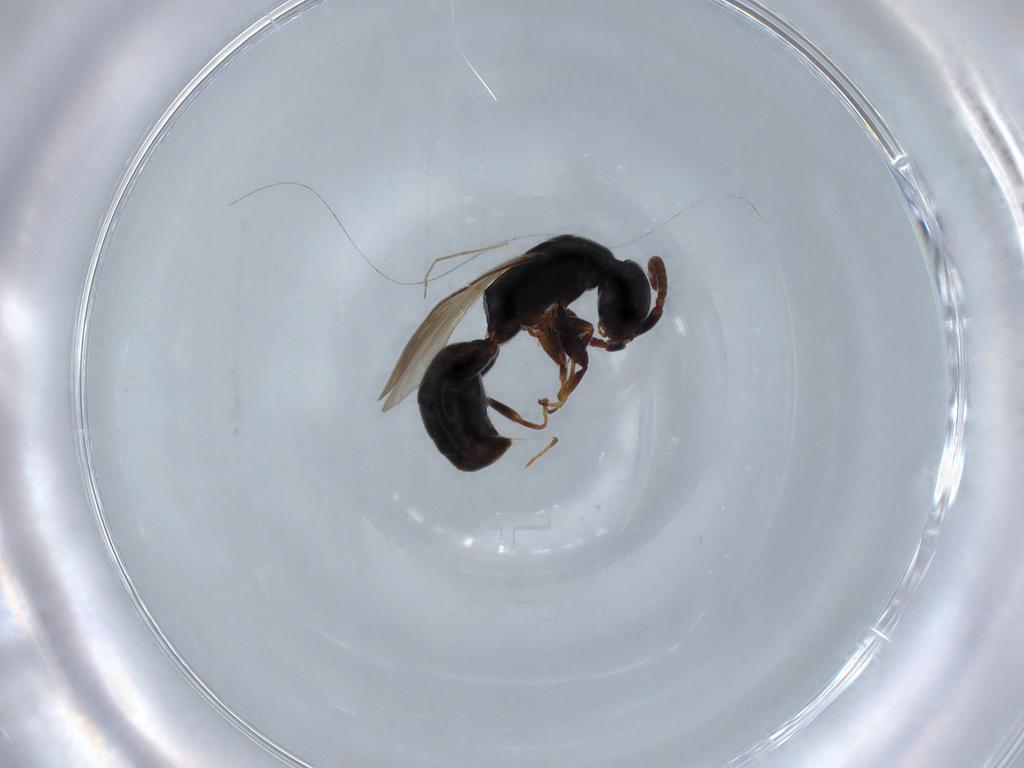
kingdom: Animalia
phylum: Arthropoda
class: Insecta
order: Hymenoptera
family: Bethylidae
